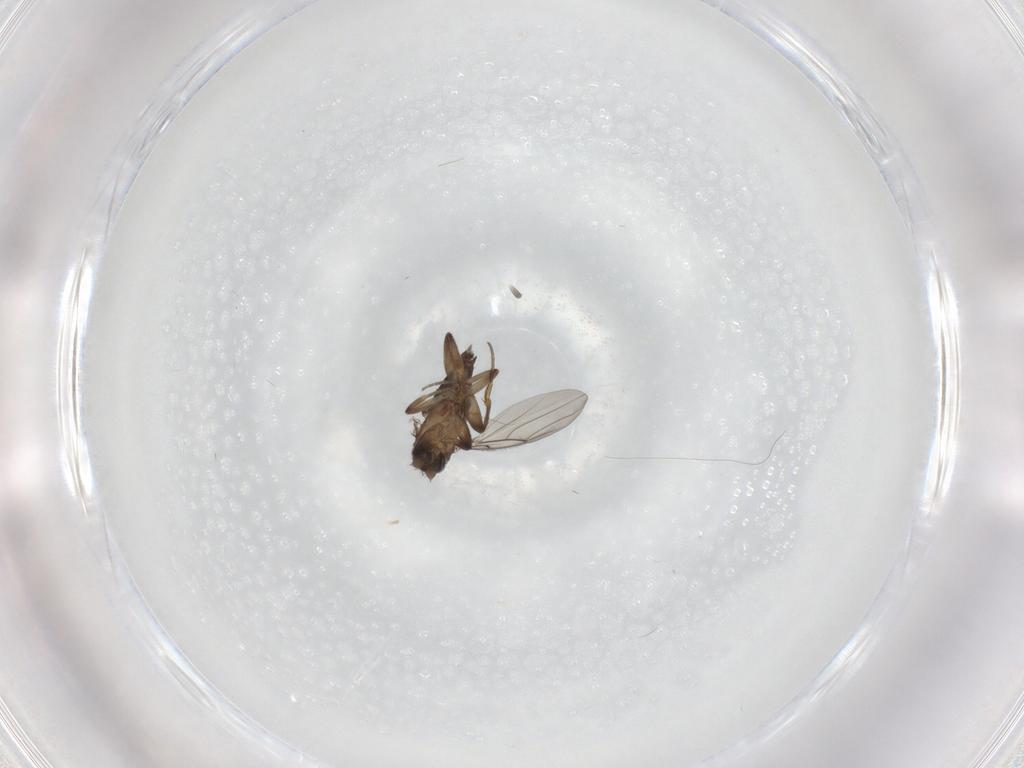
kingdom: Animalia
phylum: Arthropoda
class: Insecta
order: Diptera
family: Phoridae
